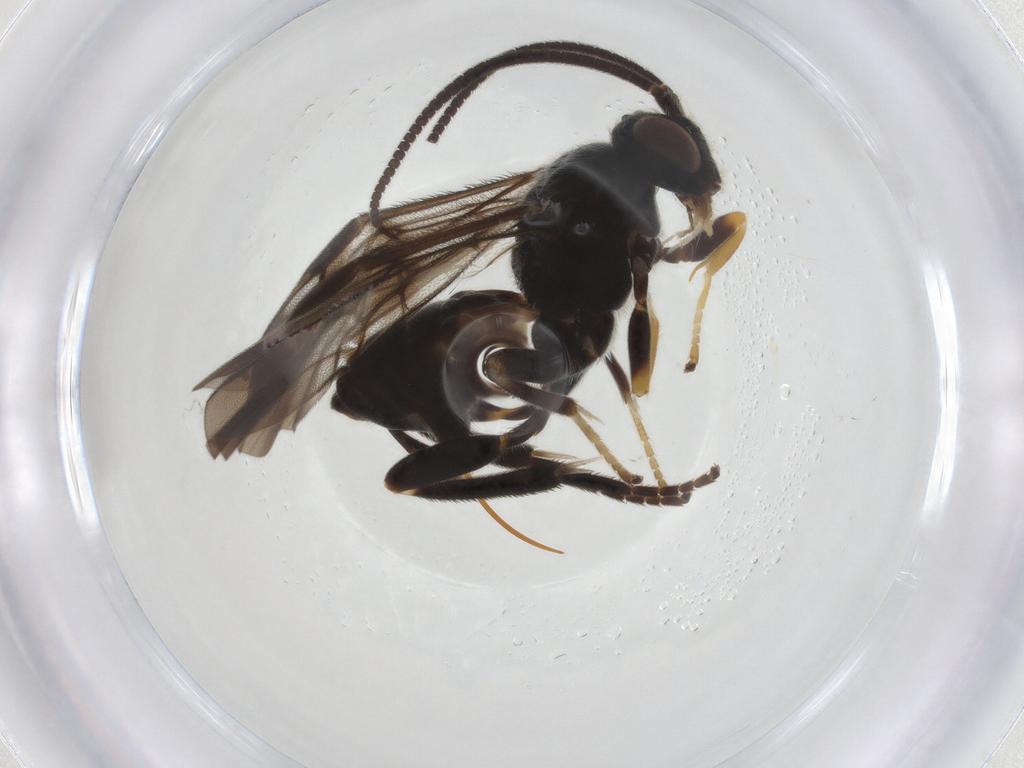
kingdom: Animalia
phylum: Arthropoda
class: Insecta
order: Hymenoptera
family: Braconidae
